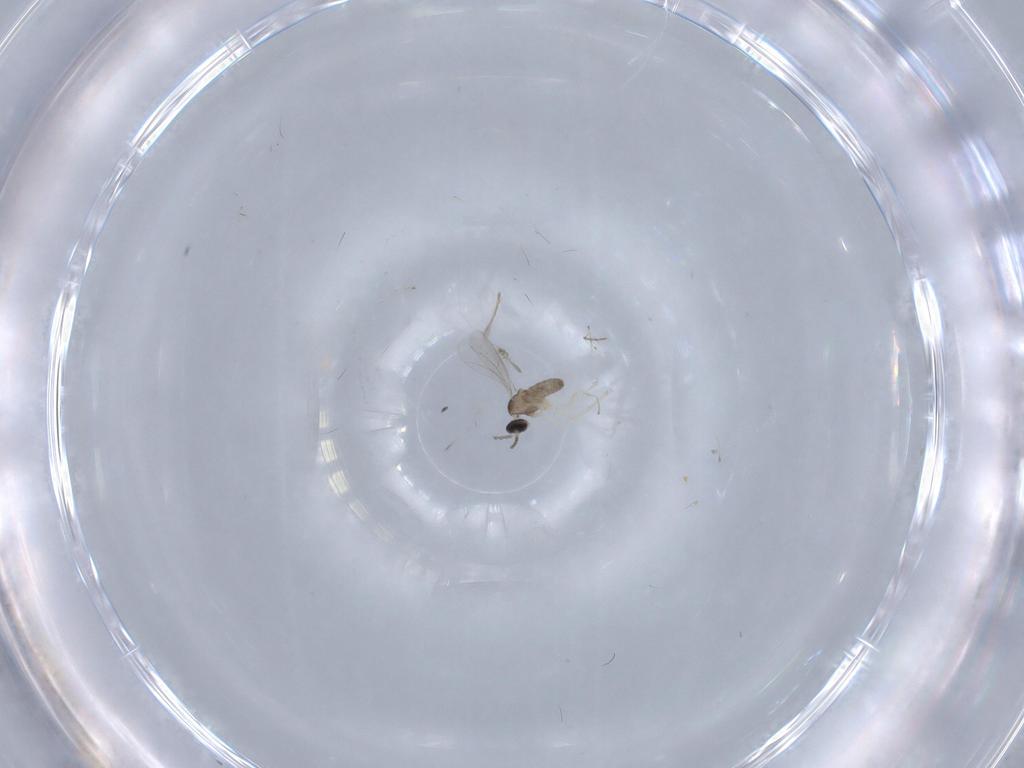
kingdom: Animalia
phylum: Arthropoda
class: Insecta
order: Diptera
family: Cecidomyiidae
